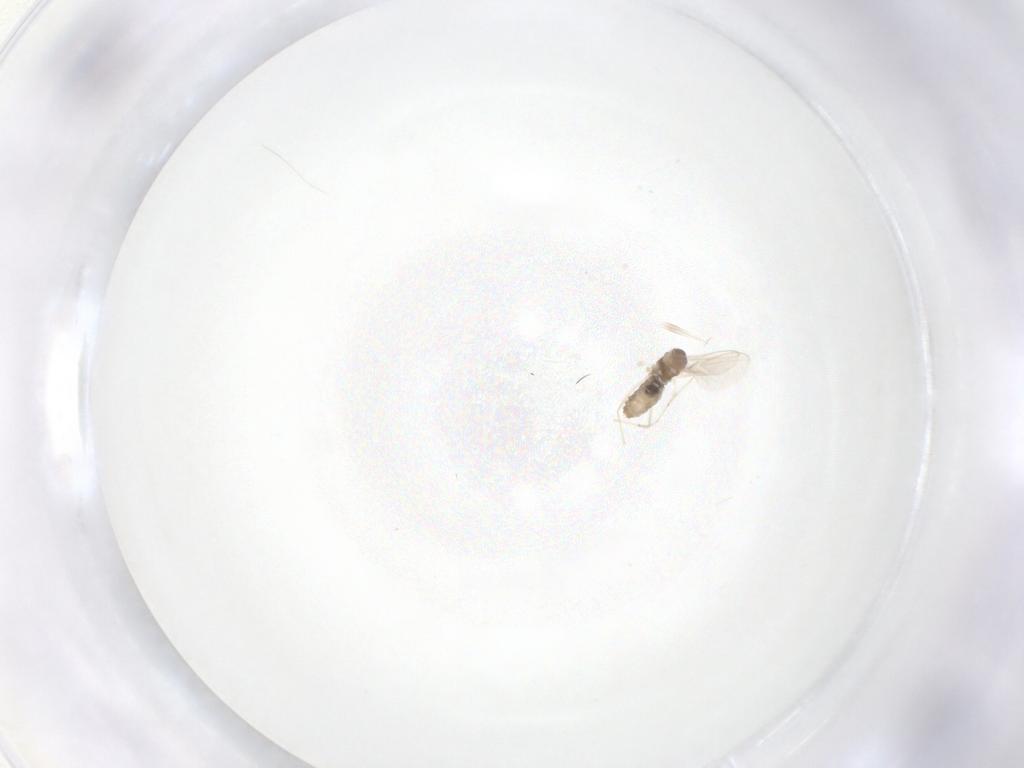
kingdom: Animalia
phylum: Arthropoda
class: Insecta
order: Diptera
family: Cecidomyiidae
